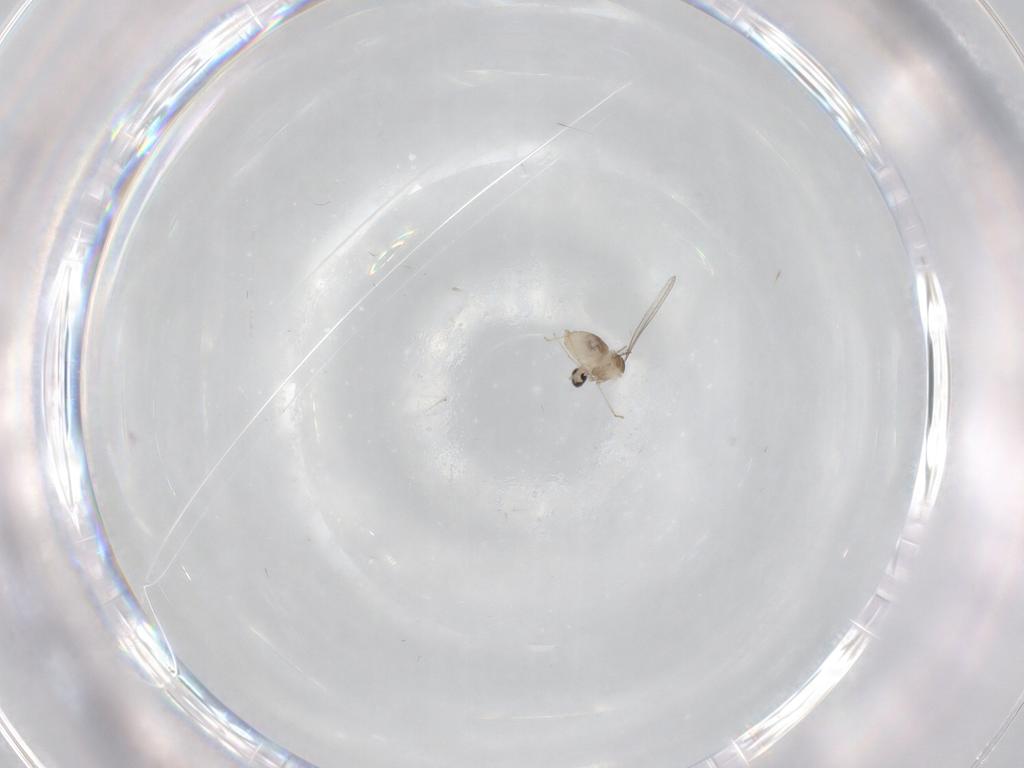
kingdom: Animalia
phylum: Arthropoda
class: Insecta
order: Diptera
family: Cecidomyiidae
